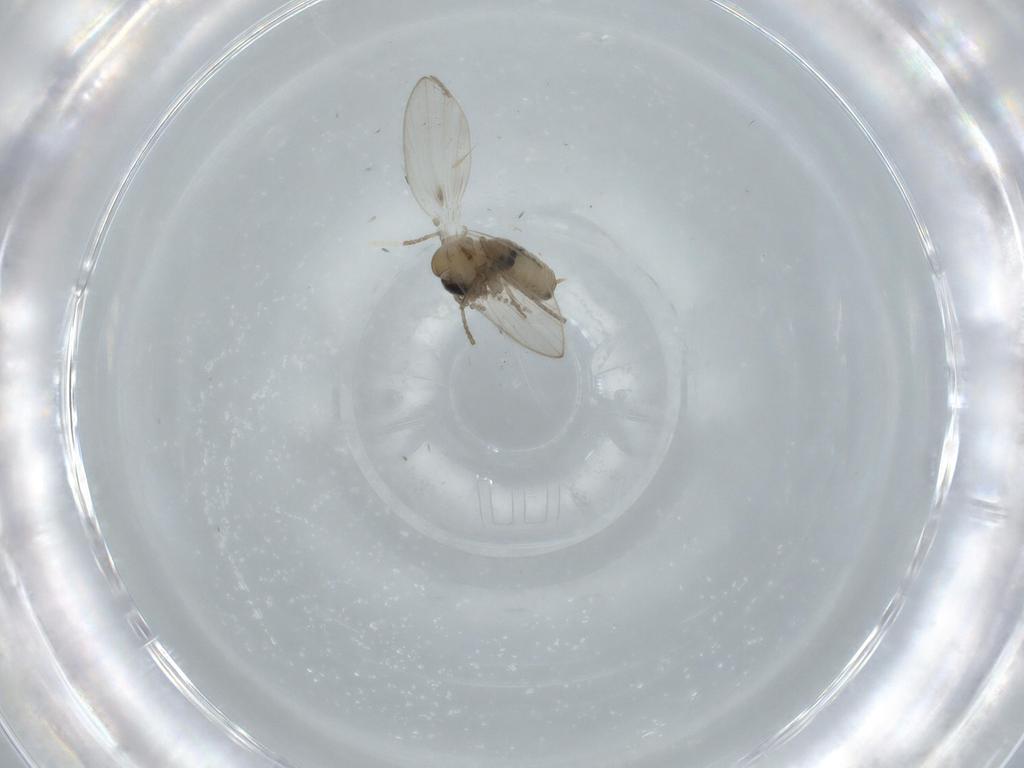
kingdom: Animalia
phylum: Arthropoda
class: Insecta
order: Diptera
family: Psychodidae
